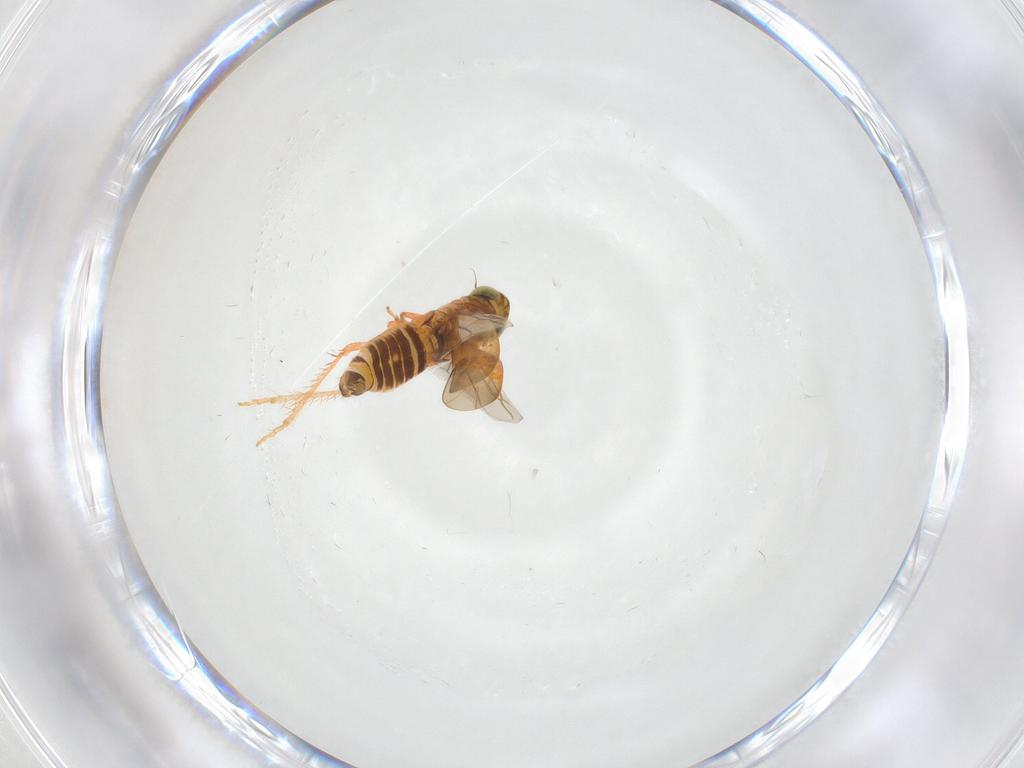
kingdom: Animalia
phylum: Arthropoda
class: Insecta
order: Hemiptera
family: Cicadellidae
